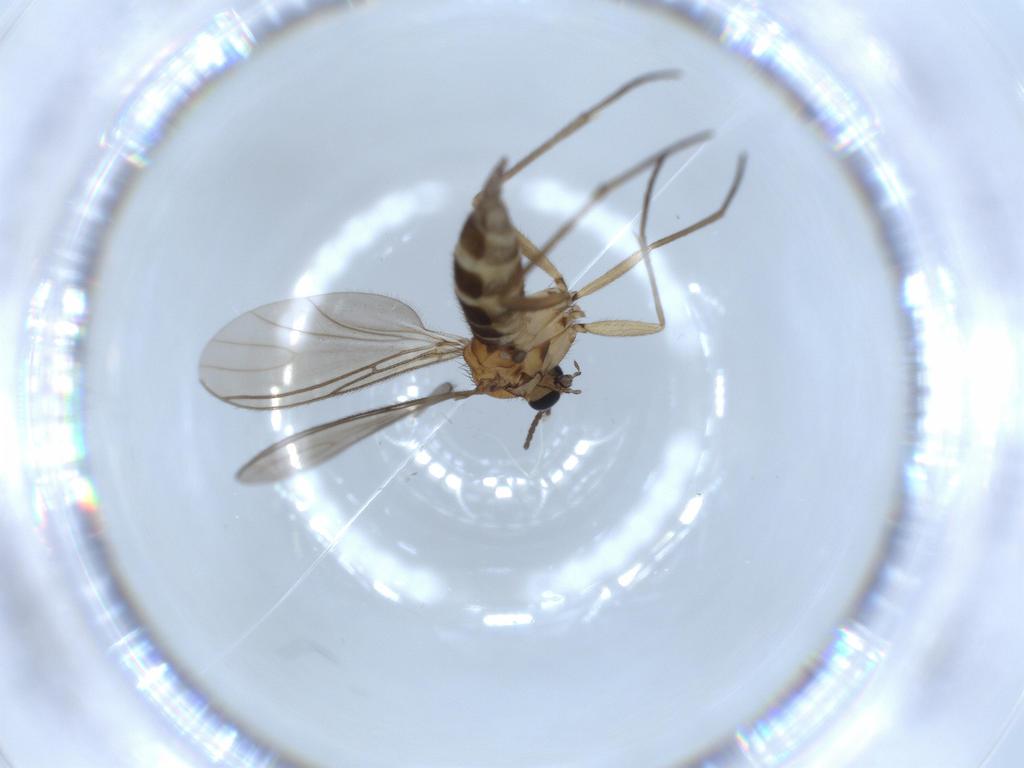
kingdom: Animalia
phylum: Arthropoda
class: Insecta
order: Diptera
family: Sciaridae
